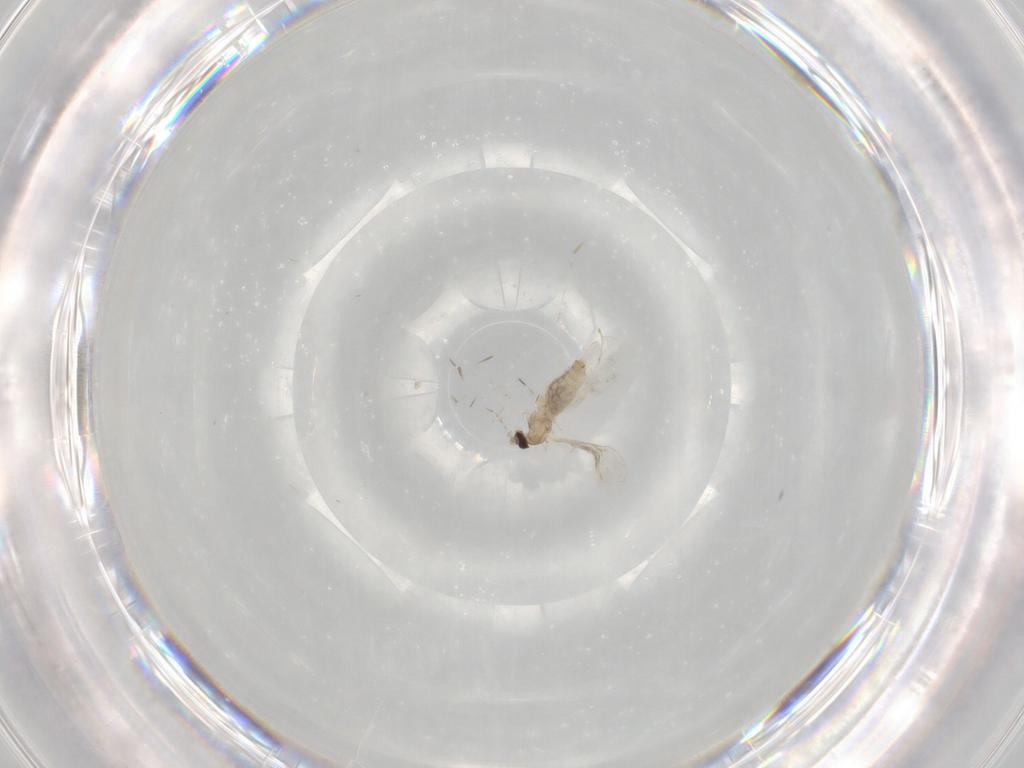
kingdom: Animalia
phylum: Arthropoda
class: Insecta
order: Diptera
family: Cecidomyiidae
